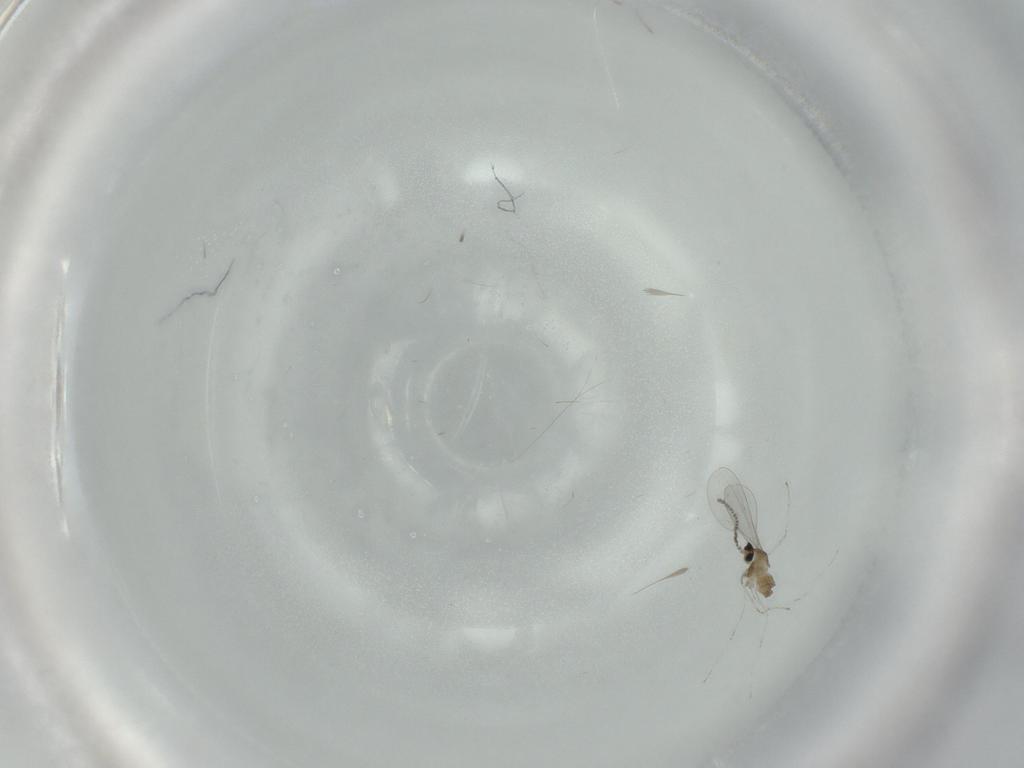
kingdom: Animalia
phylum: Arthropoda
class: Insecta
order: Diptera
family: Cecidomyiidae
